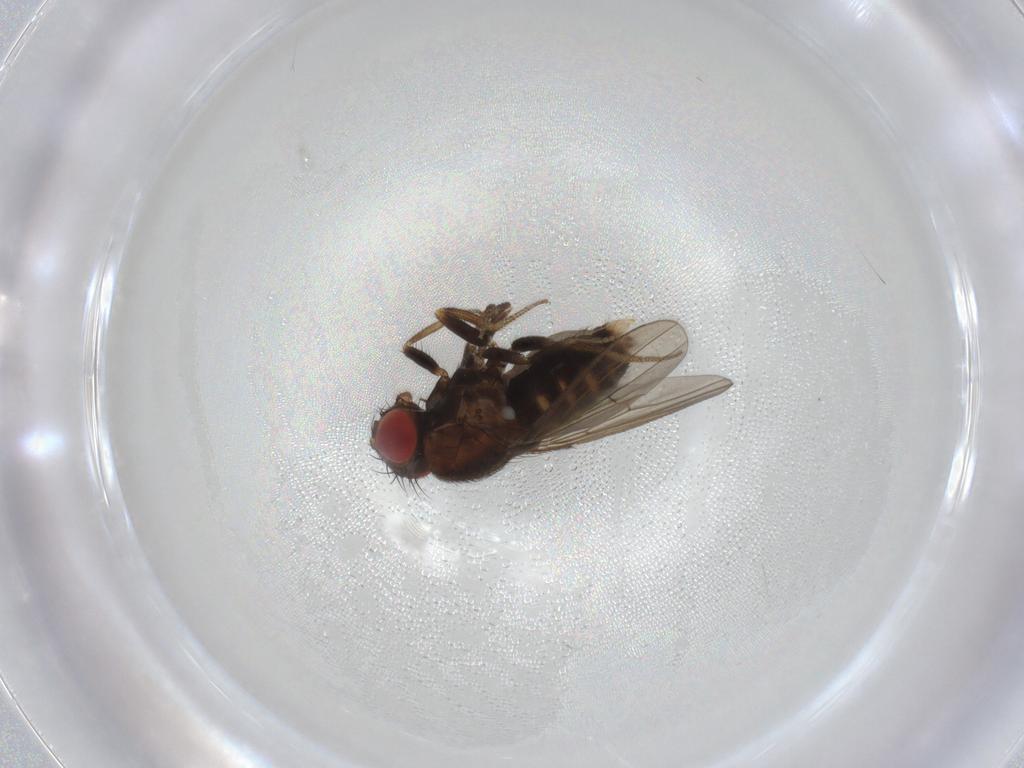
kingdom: Animalia
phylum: Arthropoda
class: Insecta
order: Diptera
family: Drosophilidae
